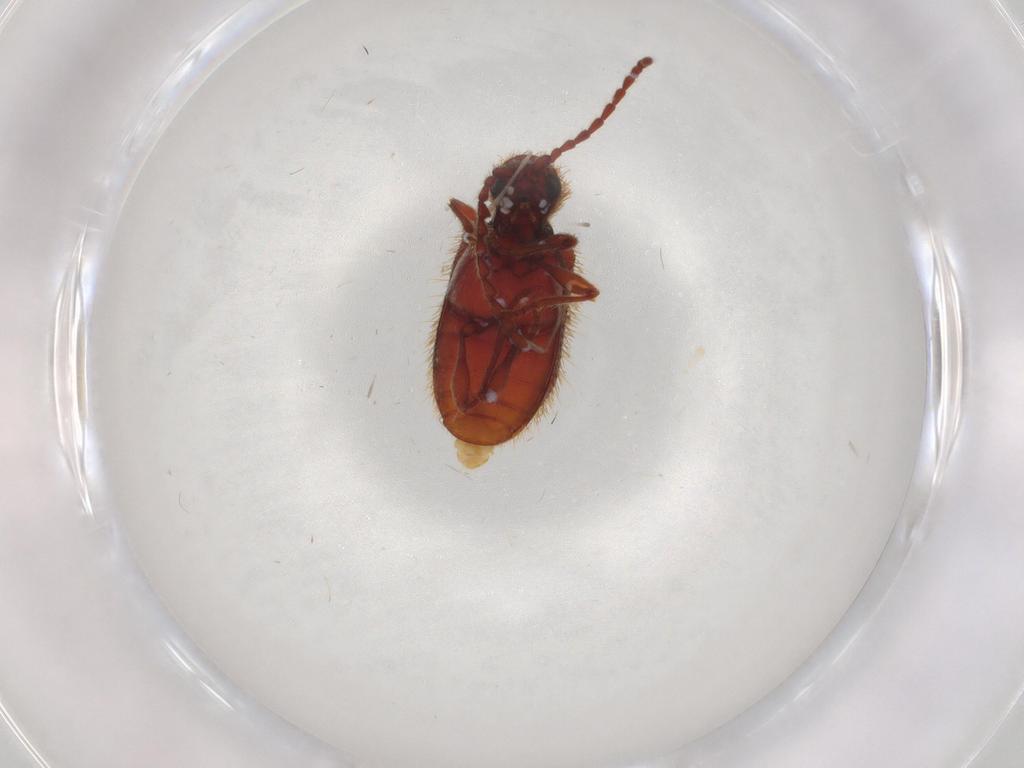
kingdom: Animalia
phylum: Arthropoda
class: Insecta
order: Coleoptera
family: Ptinidae
